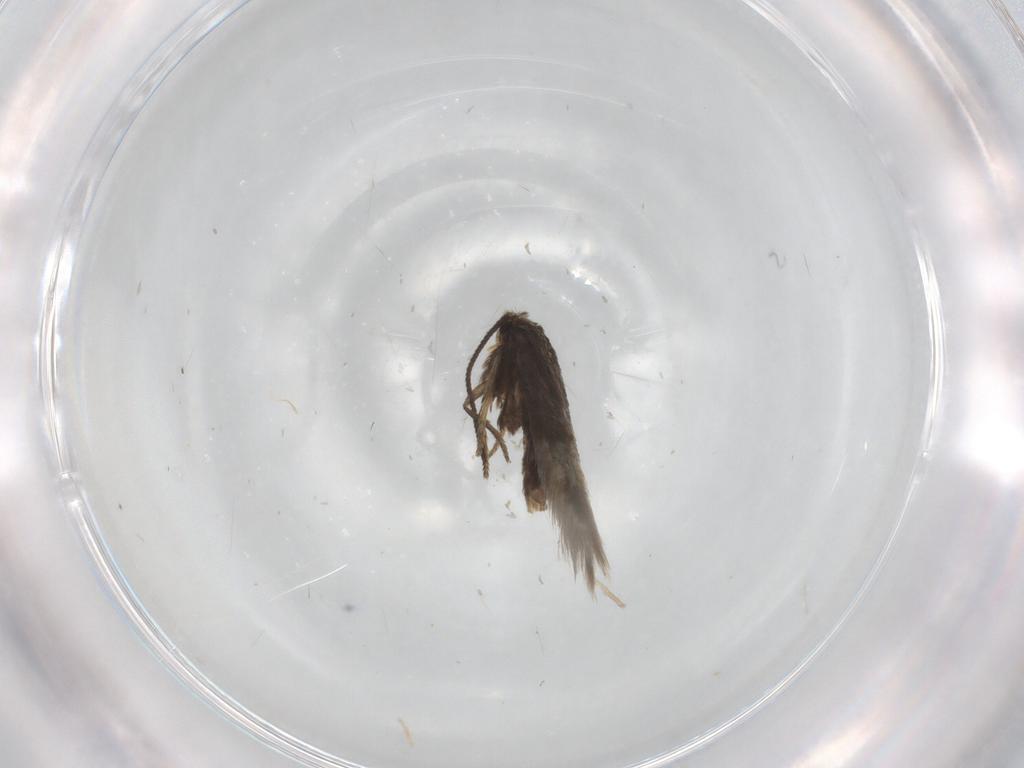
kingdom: Animalia
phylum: Arthropoda
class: Insecta
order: Lepidoptera
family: Nepticulidae
